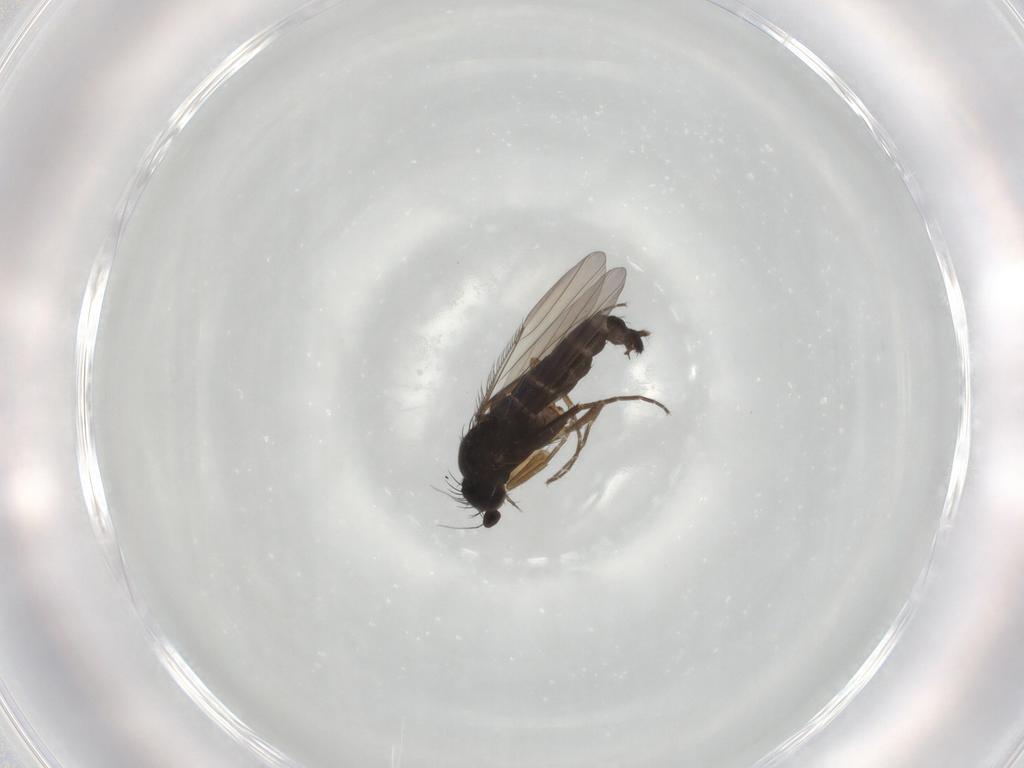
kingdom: Animalia
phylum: Arthropoda
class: Insecta
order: Diptera
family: Phoridae
